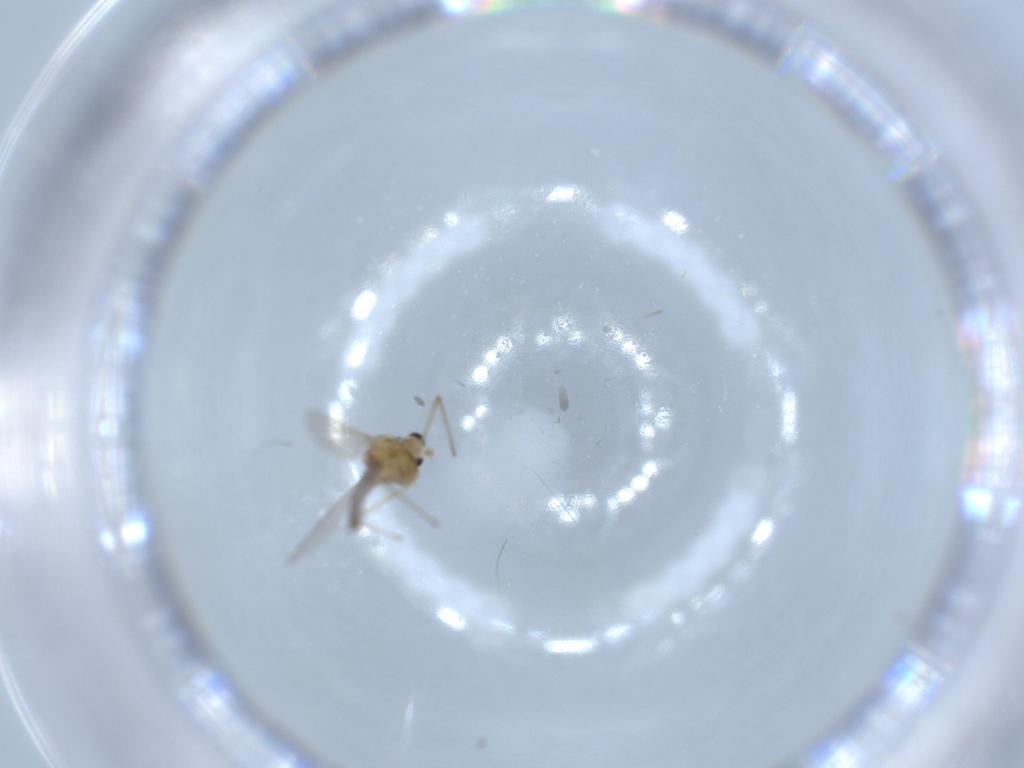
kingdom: Animalia
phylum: Arthropoda
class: Insecta
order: Diptera
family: Chironomidae
